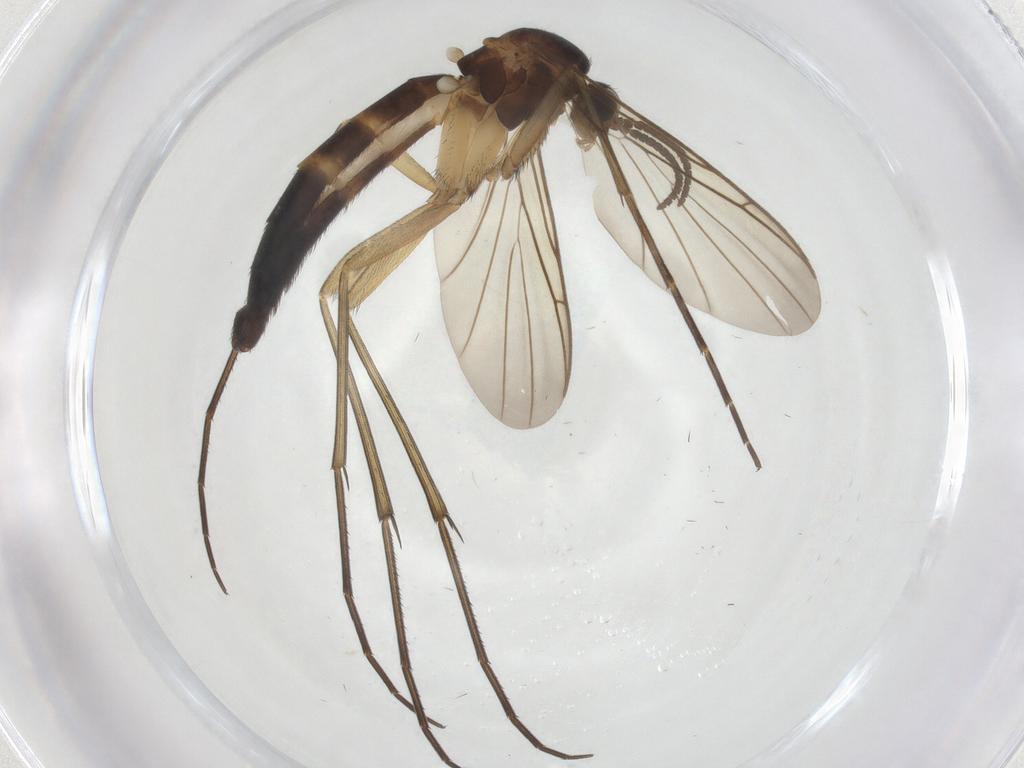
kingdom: Animalia
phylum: Arthropoda
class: Insecta
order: Diptera
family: Keroplatidae
